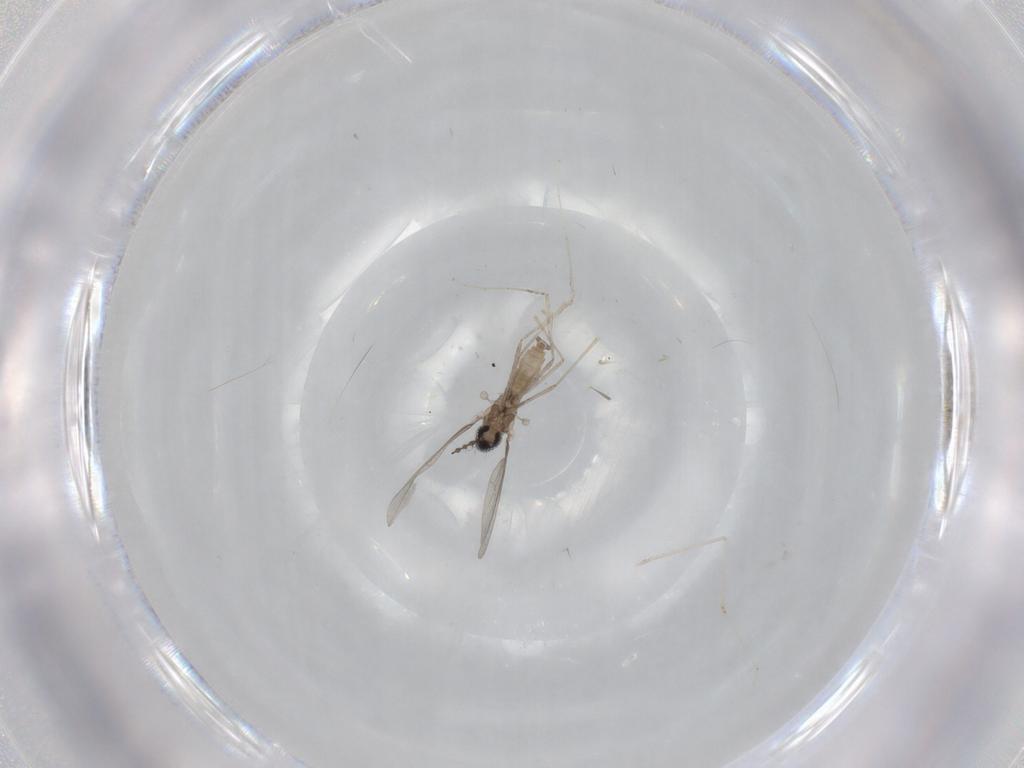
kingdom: Animalia
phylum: Arthropoda
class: Insecta
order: Diptera
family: Cecidomyiidae
